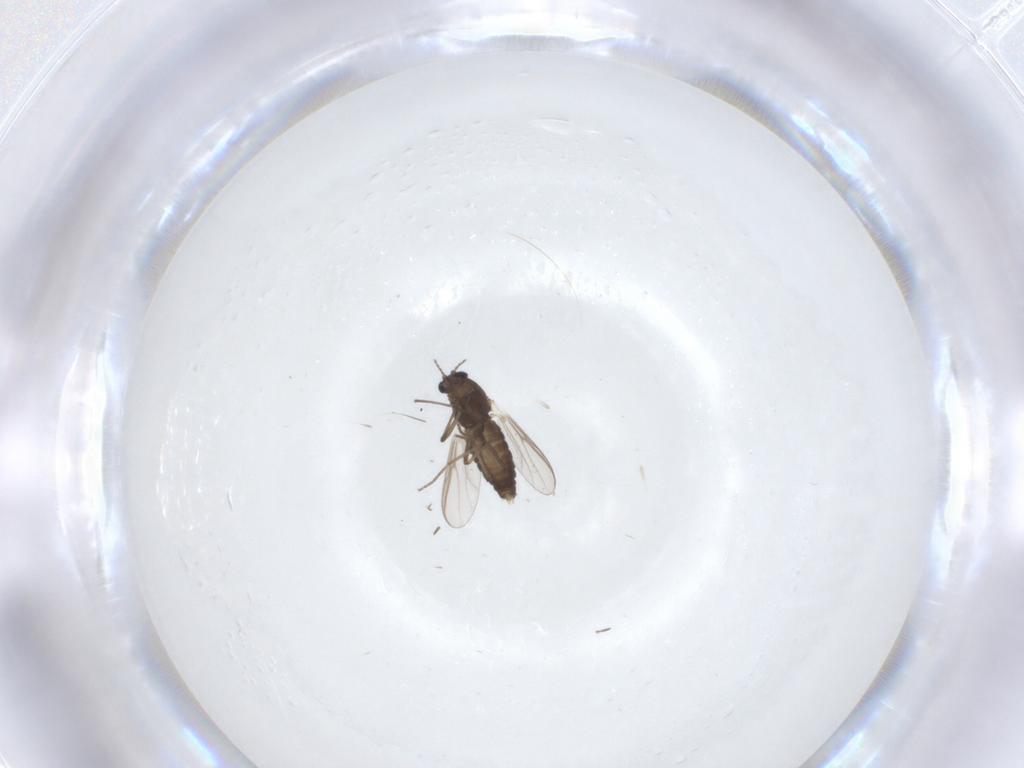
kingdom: Animalia
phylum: Arthropoda
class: Insecta
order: Diptera
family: Chironomidae
